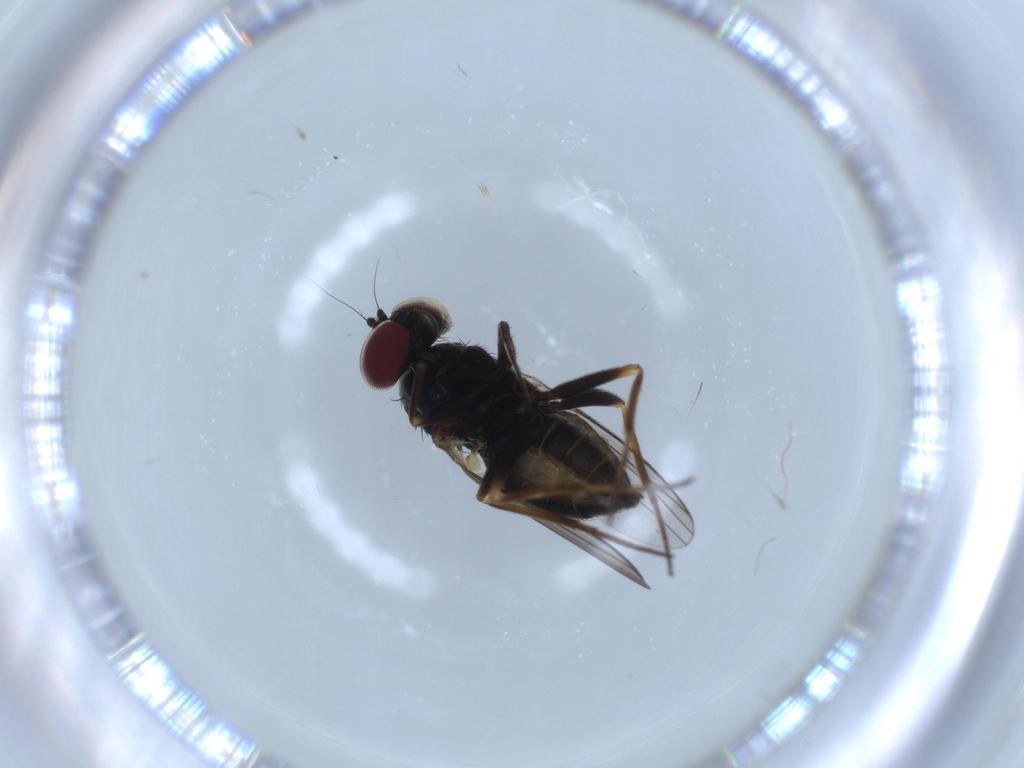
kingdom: Animalia
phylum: Arthropoda
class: Insecta
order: Diptera
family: Dolichopodidae
